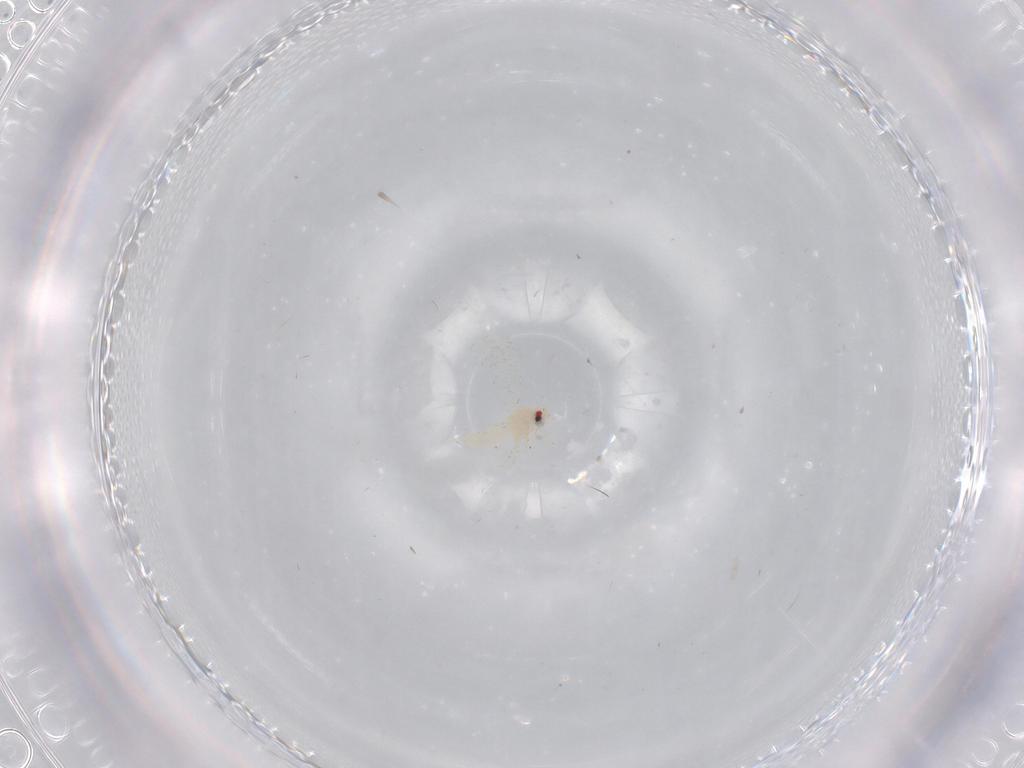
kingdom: Animalia
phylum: Arthropoda
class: Insecta
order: Hemiptera
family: Aleyrodidae
